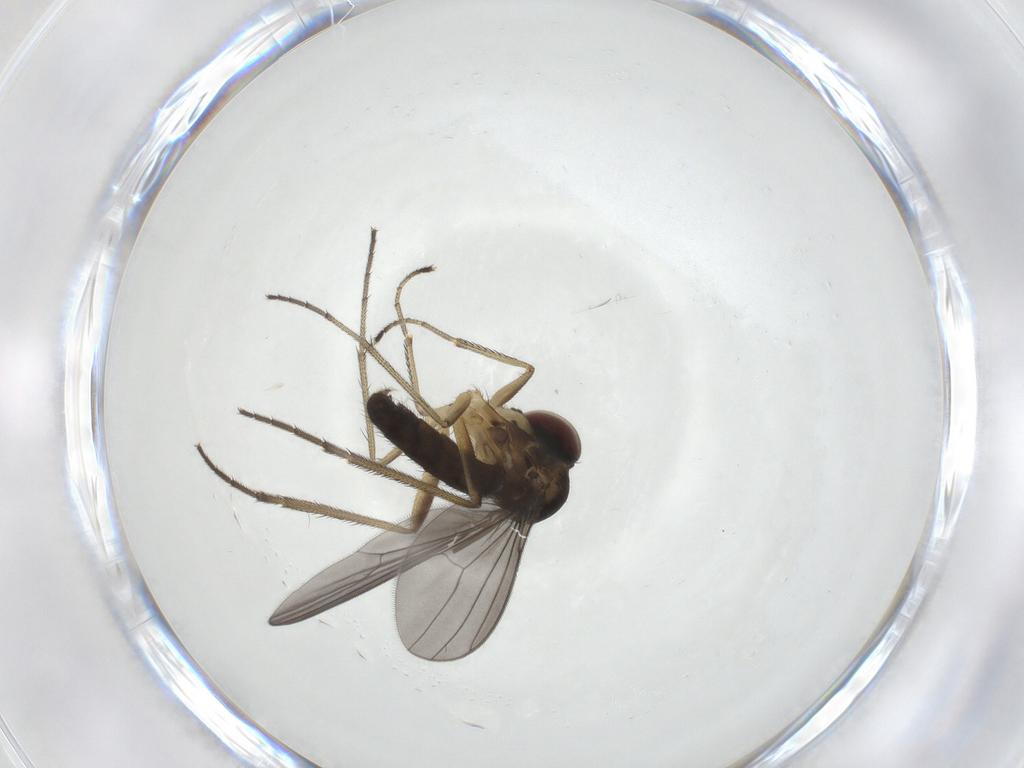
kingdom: Animalia
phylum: Arthropoda
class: Insecta
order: Diptera
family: Dolichopodidae
